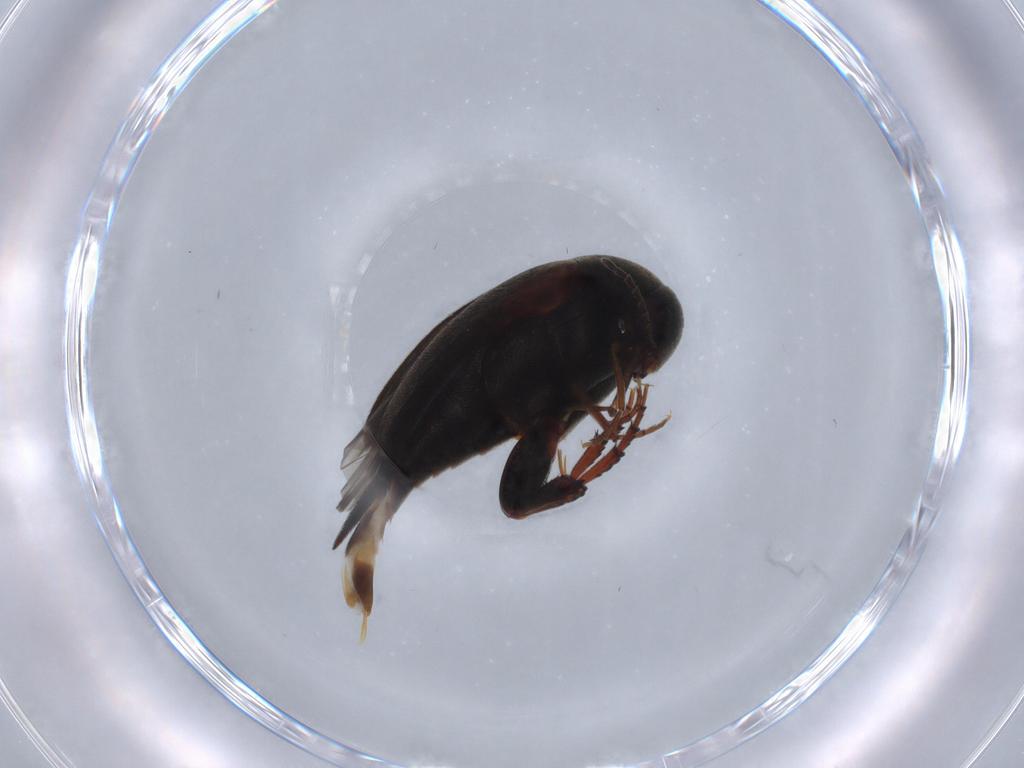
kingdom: Animalia
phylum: Arthropoda
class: Insecta
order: Coleoptera
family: Mordellidae
